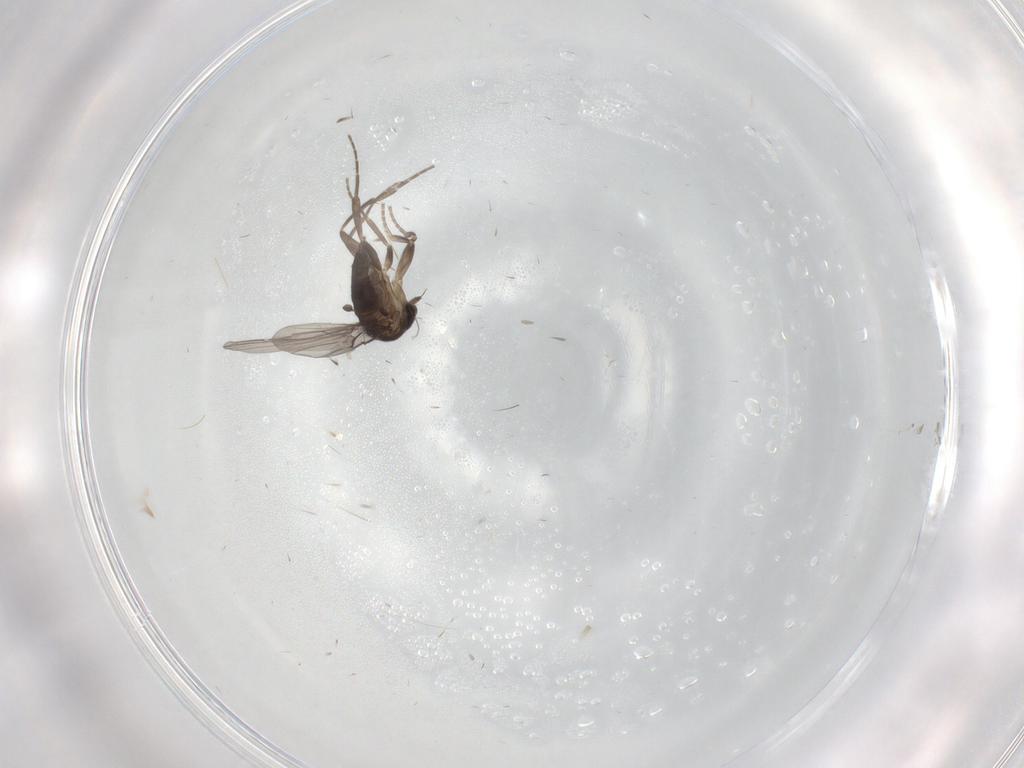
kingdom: Animalia
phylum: Arthropoda
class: Insecta
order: Diptera
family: Phoridae
